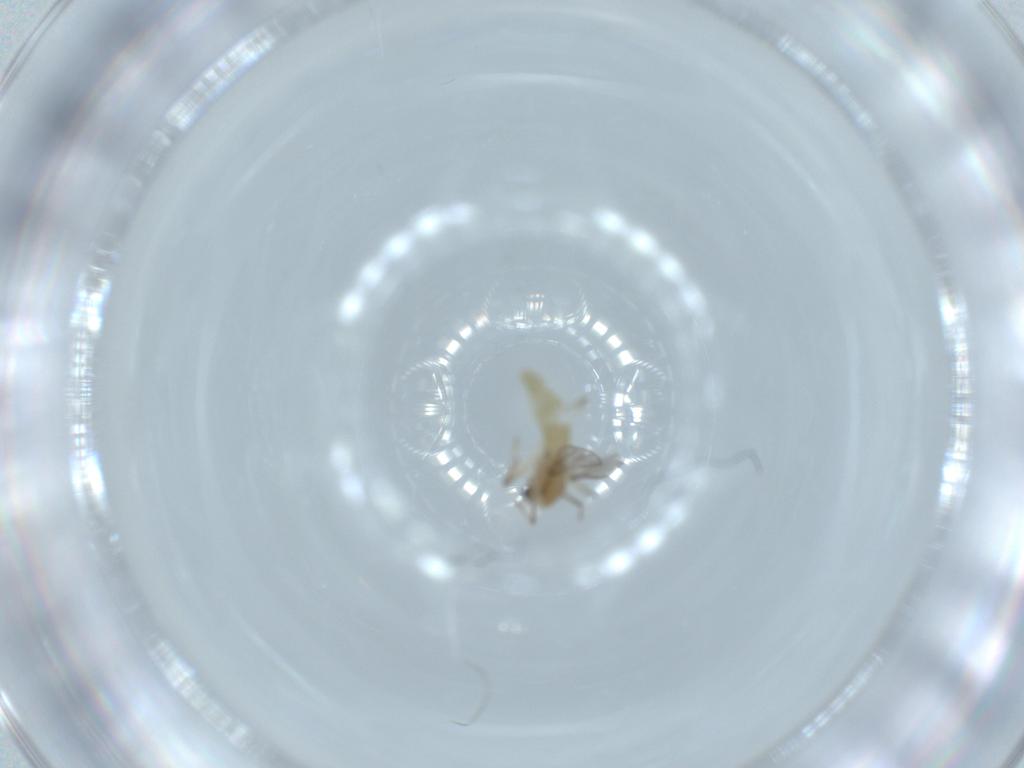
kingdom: Animalia
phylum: Arthropoda
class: Insecta
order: Diptera
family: Chironomidae
